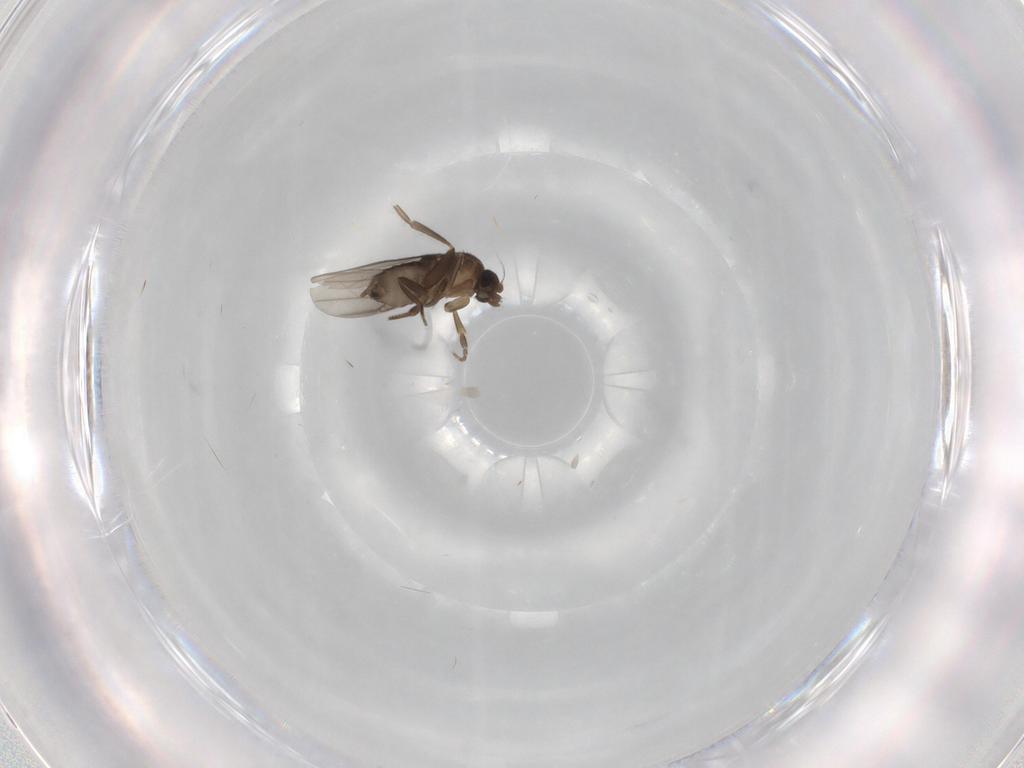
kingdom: Animalia
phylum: Arthropoda
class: Insecta
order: Diptera
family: Phoridae
